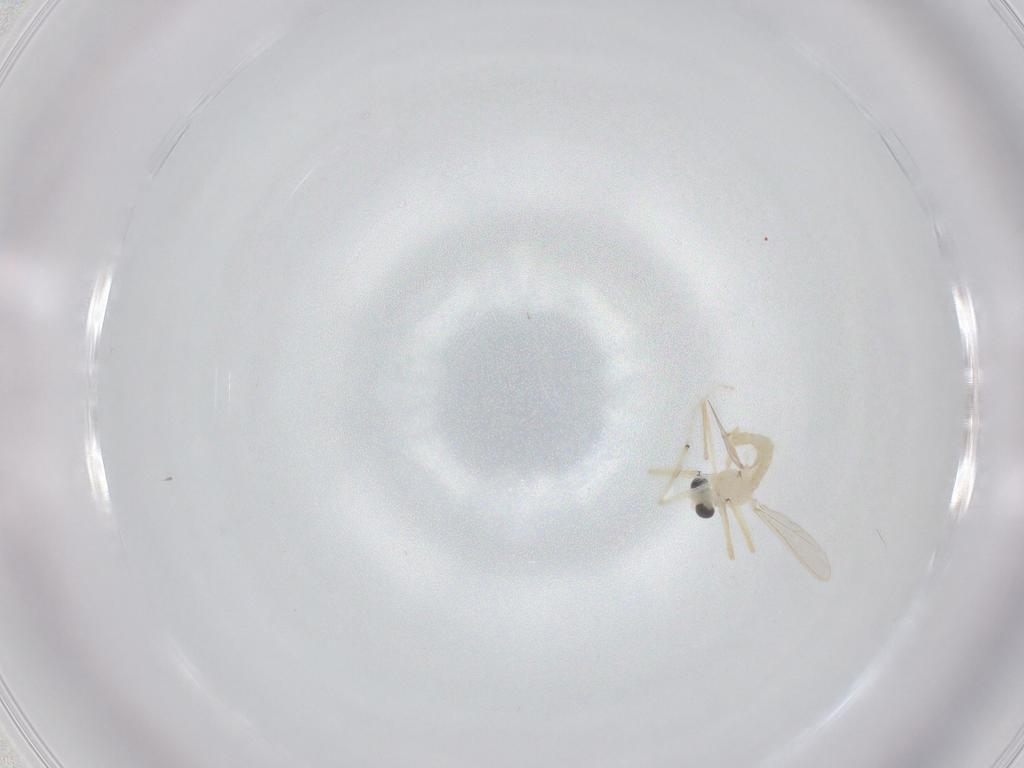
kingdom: Animalia
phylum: Arthropoda
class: Insecta
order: Diptera
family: Chironomidae
